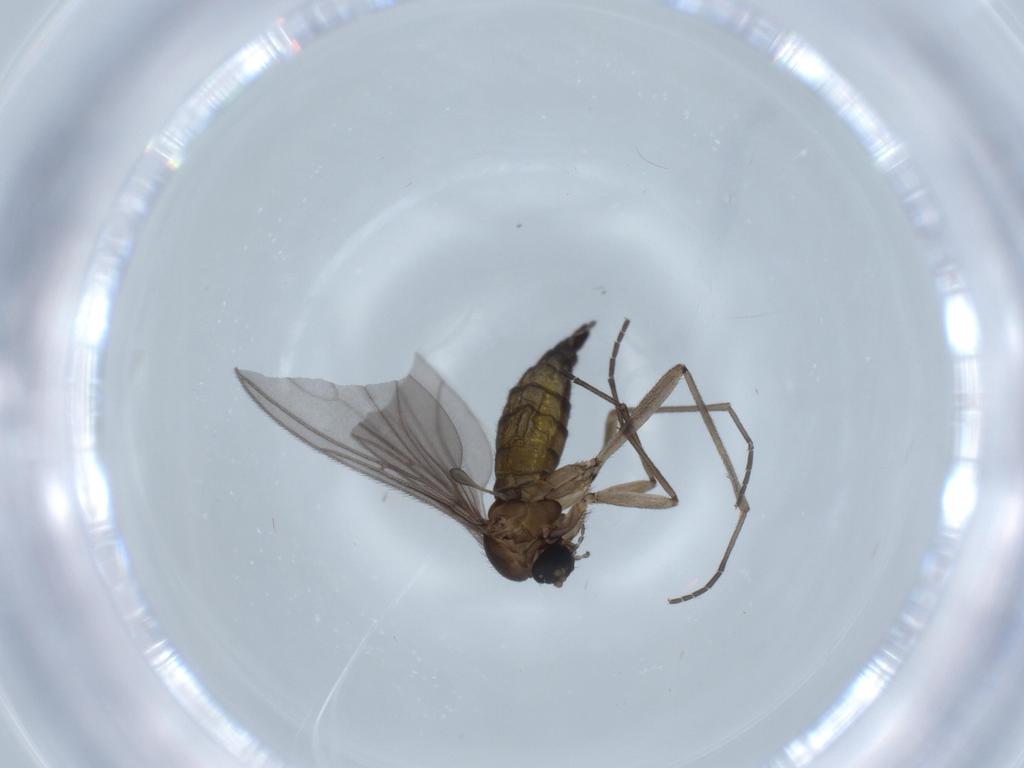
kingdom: Animalia
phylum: Arthropoda
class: Insecta
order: Diptera
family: Sciaridae
